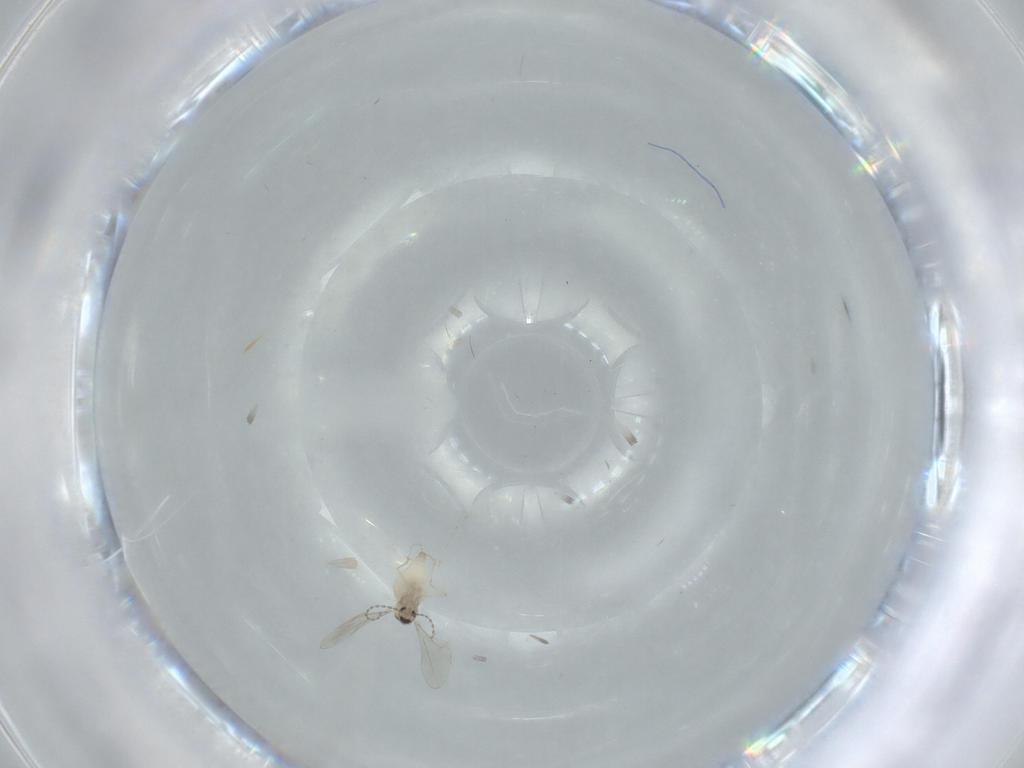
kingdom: Animalia
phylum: Arthropoda
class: Insecta
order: Diptera
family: Cecidomyiidae
